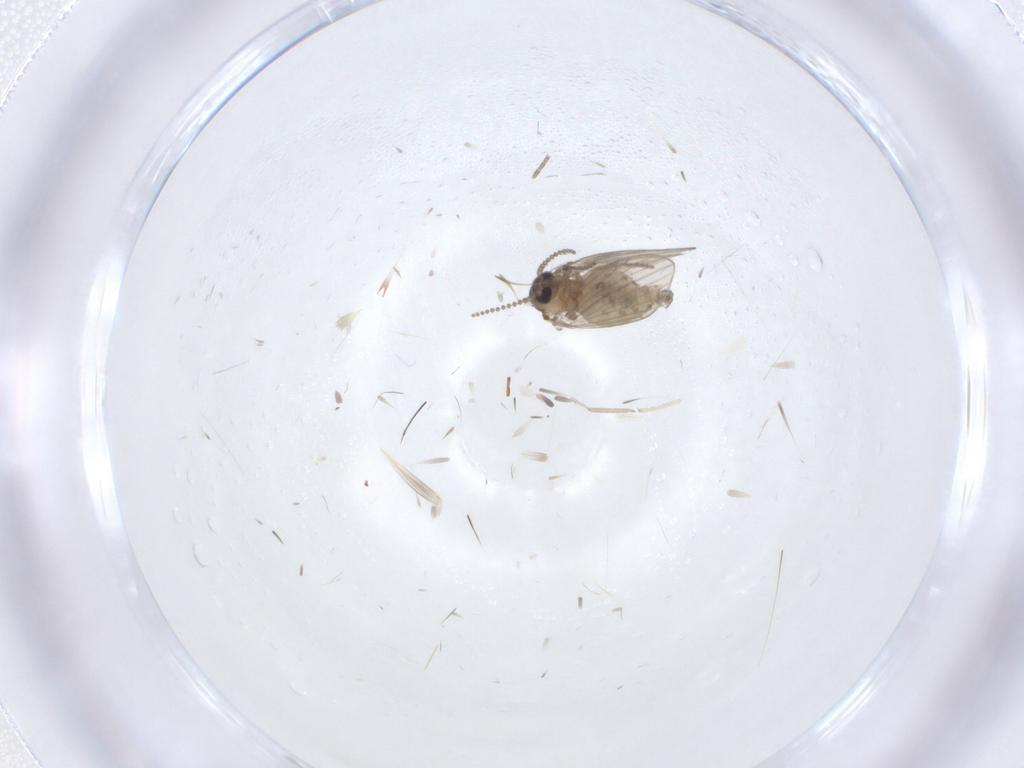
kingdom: Animalia
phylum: Arthropoda
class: Insecta
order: Diptera
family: Psychodidae
